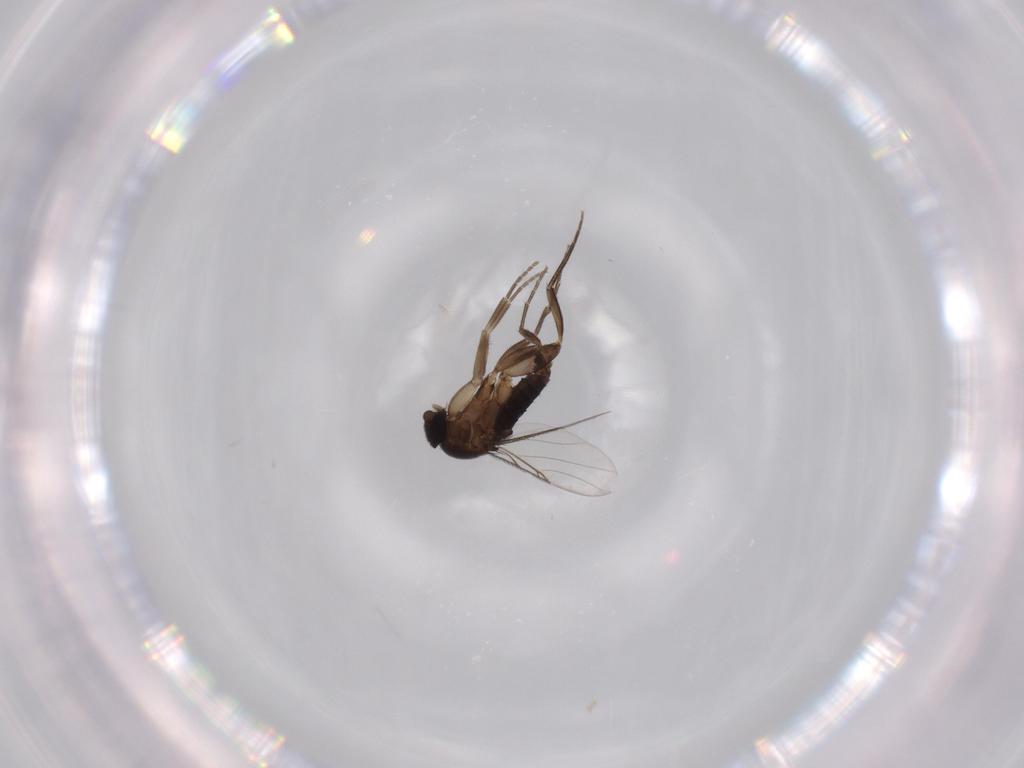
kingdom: Animalia
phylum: Arthropoda
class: Insecta
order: Diptera
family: Phoridae
